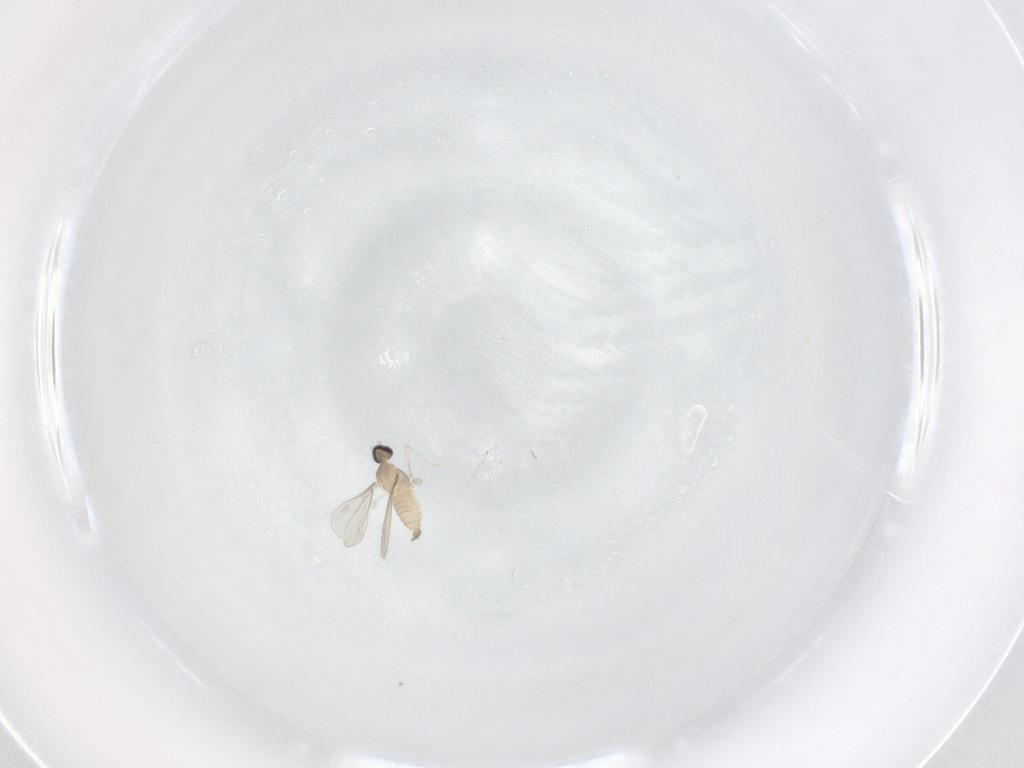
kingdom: Animalia
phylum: Arthropoda
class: Insecta
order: Diptera
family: Cecidomyiidae
